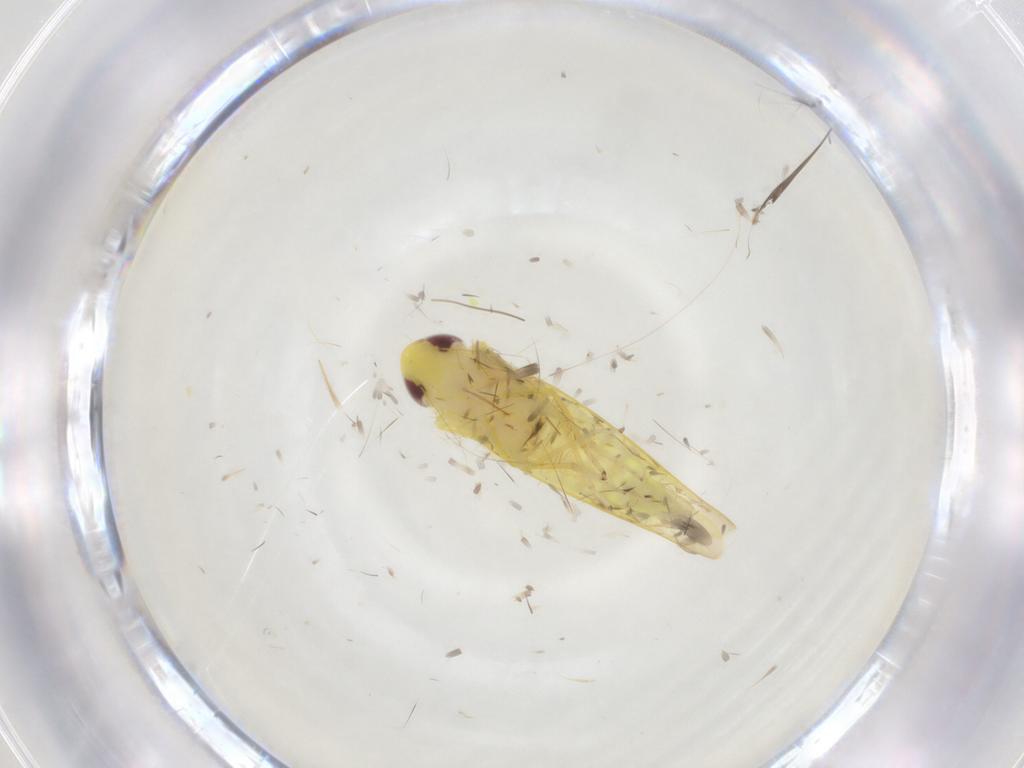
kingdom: Animalia
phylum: Arthropoda
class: Insecta
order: Hemiptera
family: Cicadellidae
